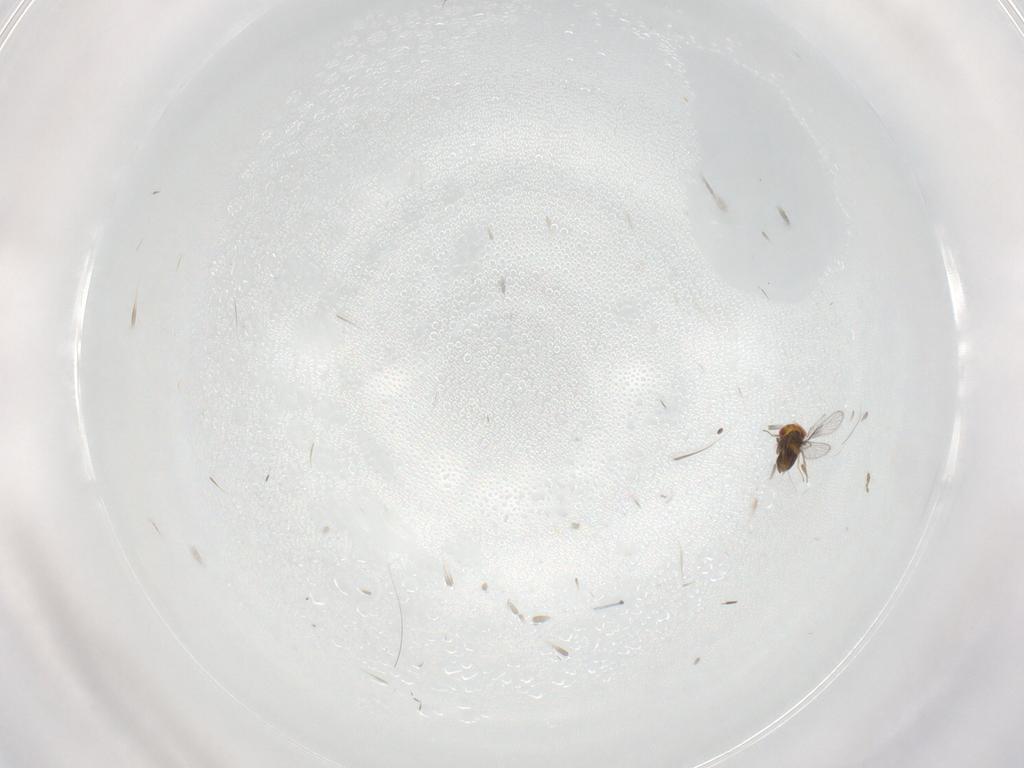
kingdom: Animalia
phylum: Arthropoda
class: Insecta
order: Hymenoptera
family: Trichogrammatidae
